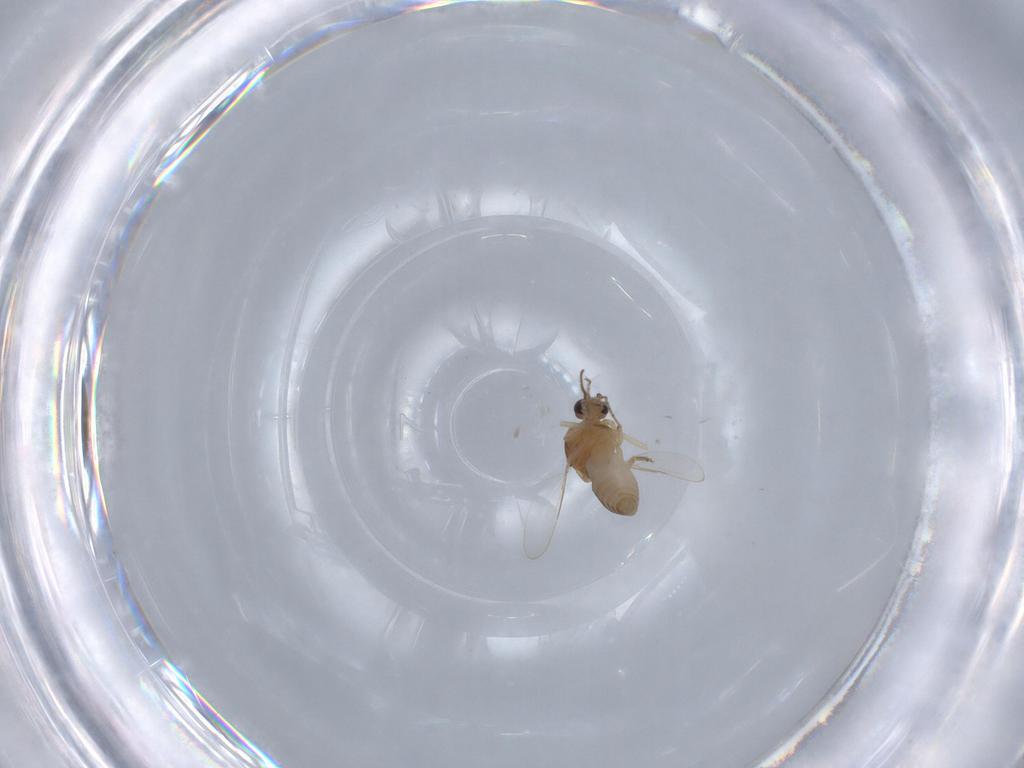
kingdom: Animalia
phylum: Arthropoda
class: Insecta
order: Diptera
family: Ceratopogonidae
